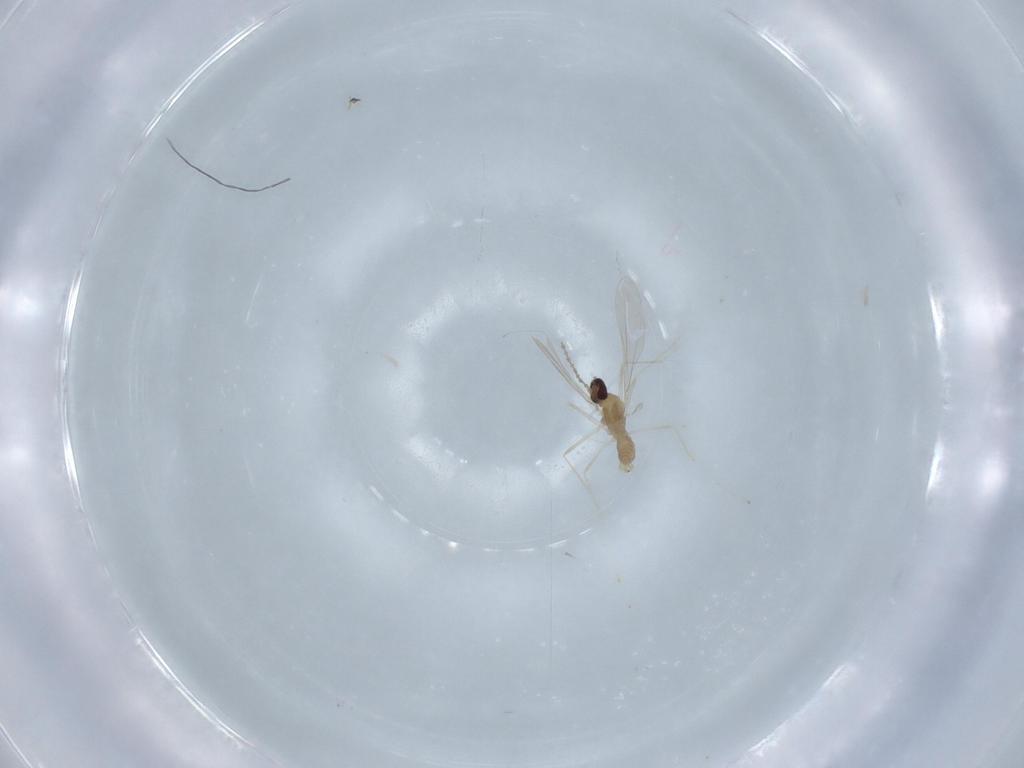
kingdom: Animalia
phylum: Arthropoda
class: Insecta
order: Diptera
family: Cecidomyiidae
